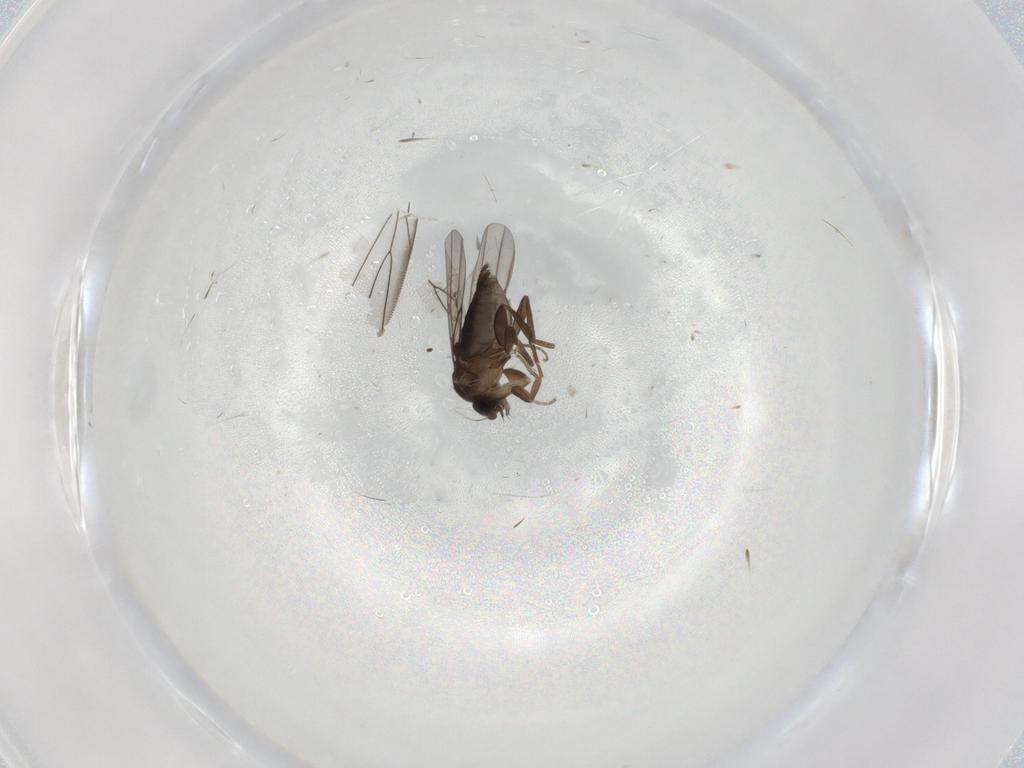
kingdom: Animalia
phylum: Arthropoda
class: Insecta
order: Diptera
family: Cecidomyiidae
